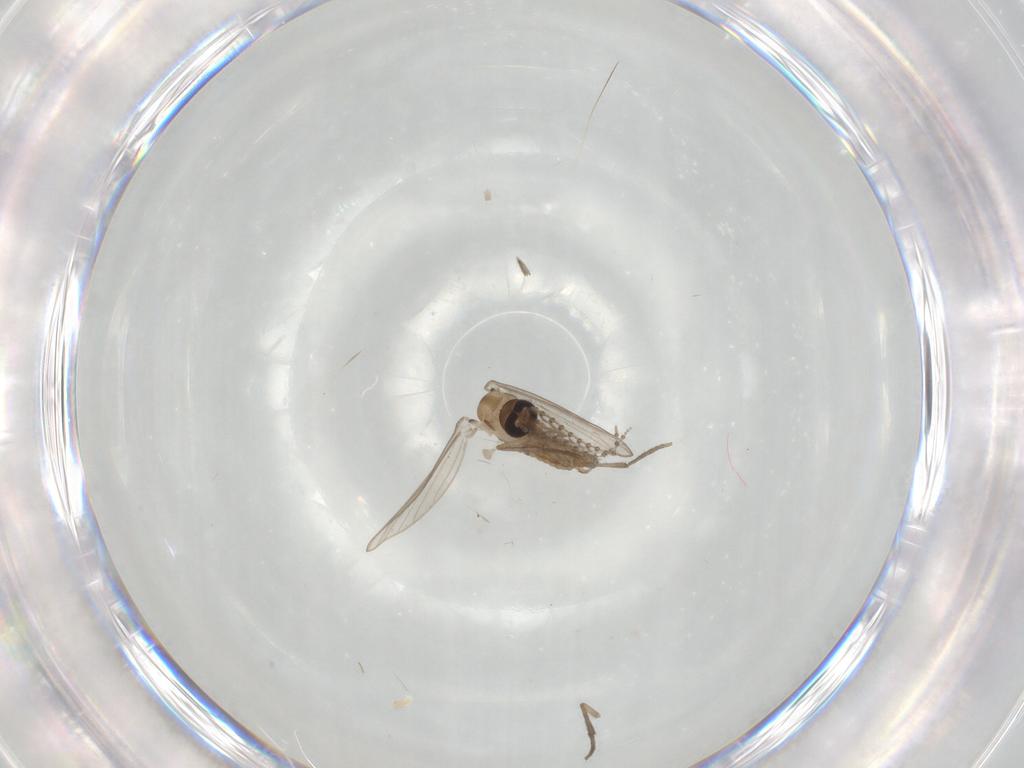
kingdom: Animalia
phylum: Arthropoda
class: Insecta
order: Diptera
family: Psychodidae
